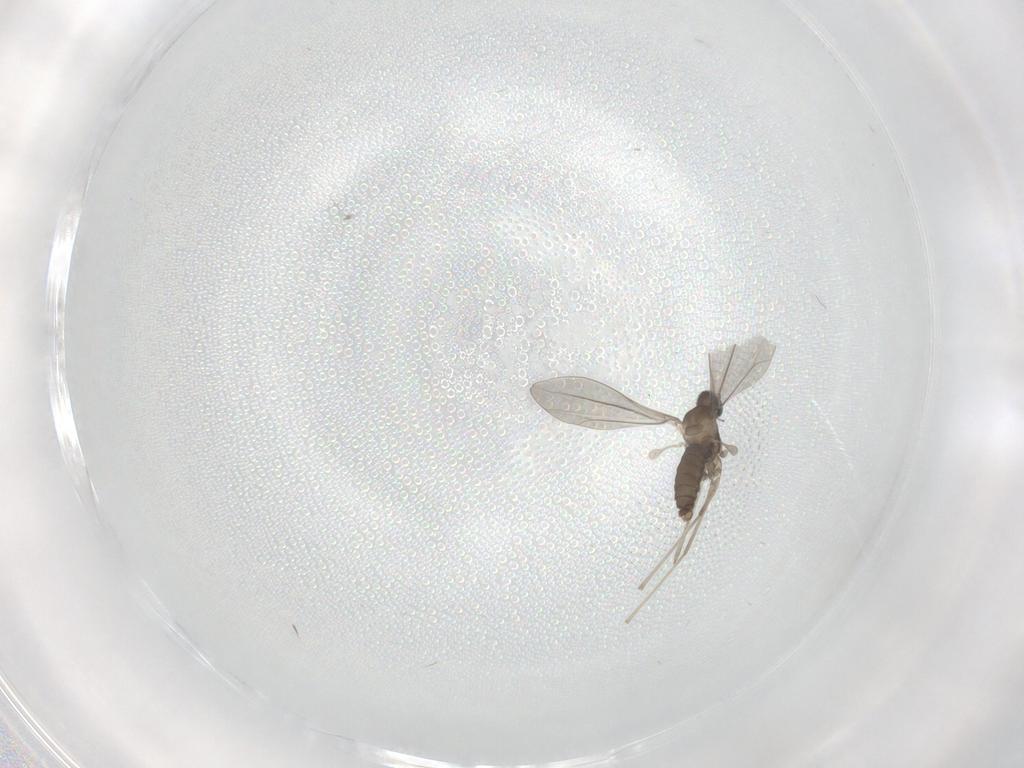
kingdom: Animalia
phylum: Arthropoda
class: Insecta
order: Diptera
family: Cecidomyiidae
